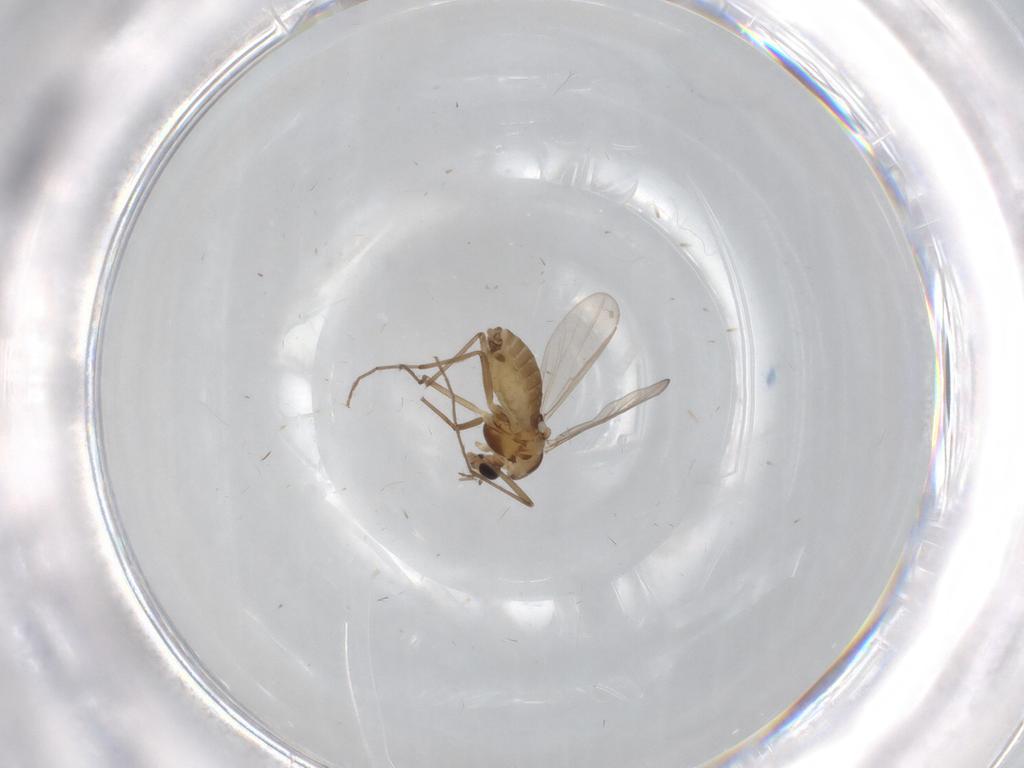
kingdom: Animalia
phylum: Arthropoda
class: Insecta
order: Diptera
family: Chironomidae
